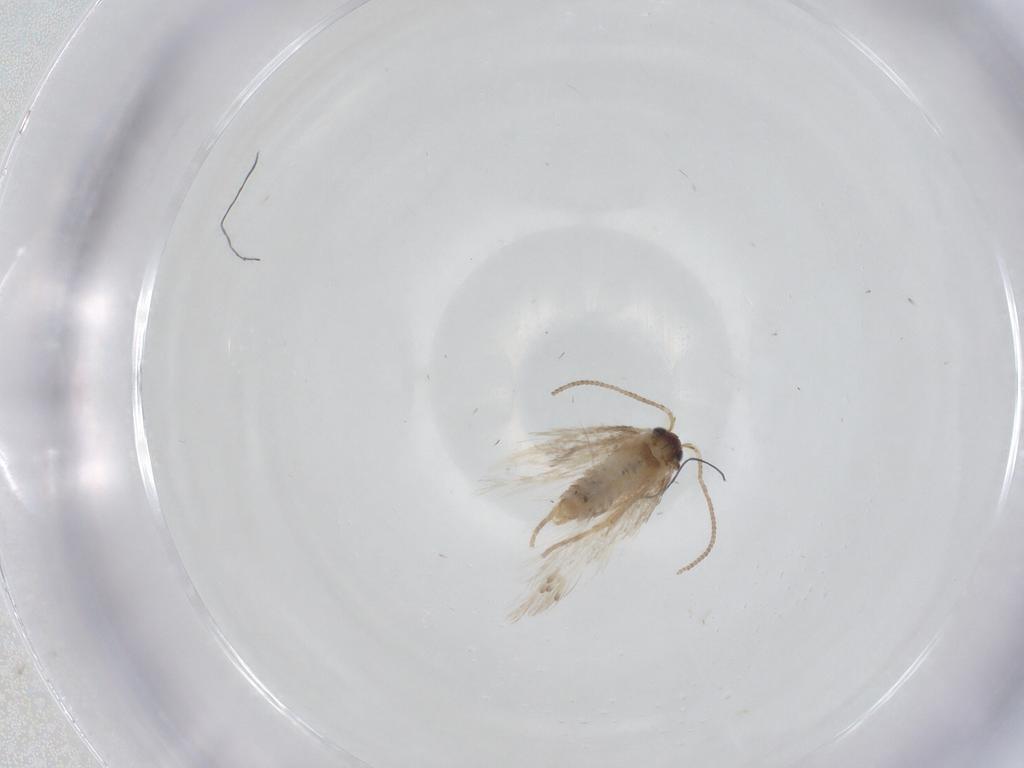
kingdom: Animalia
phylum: Arthropoda
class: Insecta
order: Lepidoptera
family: Nepticulidae
